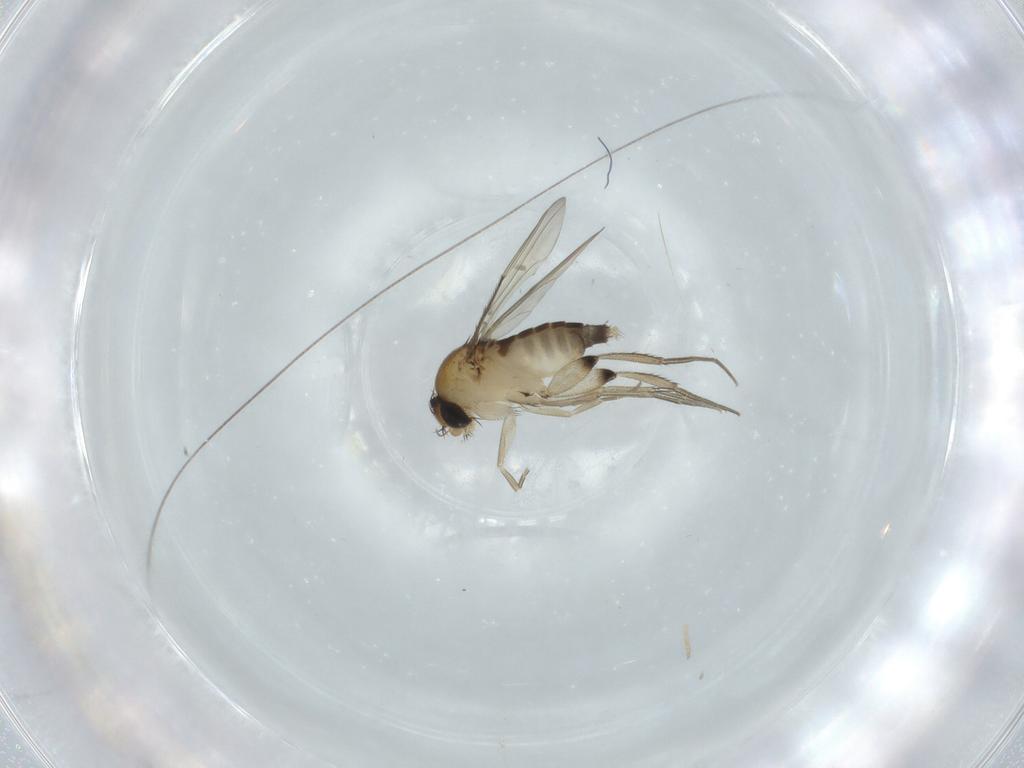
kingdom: Animalia
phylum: Arthropoda
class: Insecta
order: Diptera
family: Phoridae
